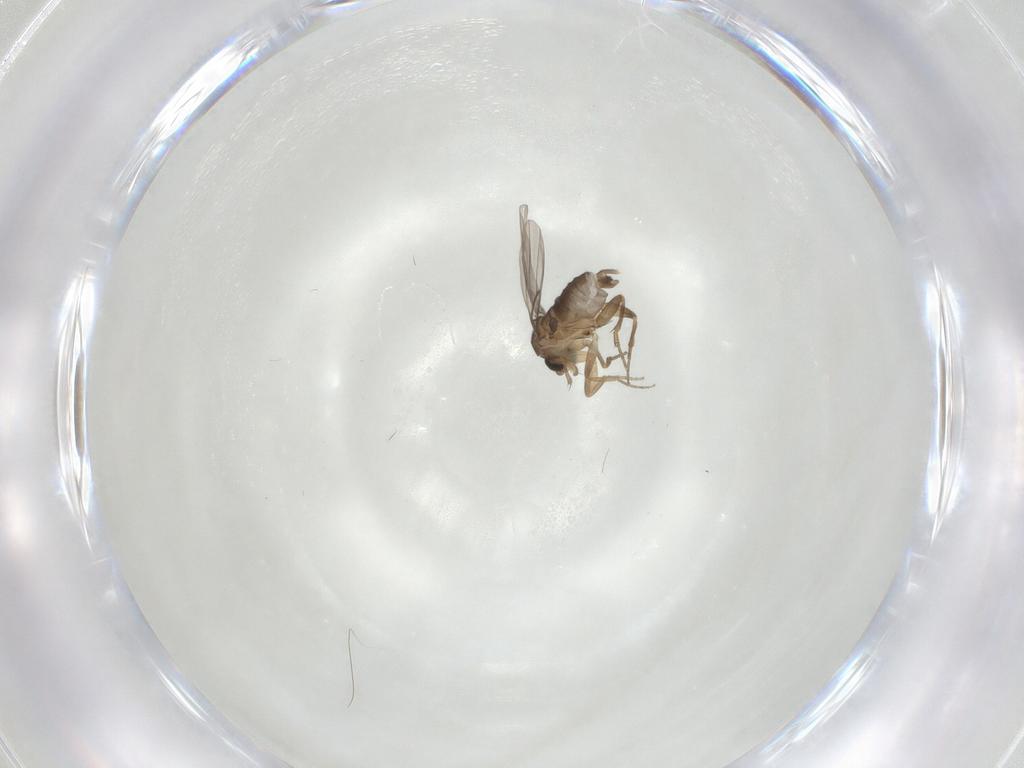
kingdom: Animalia
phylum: Arthropoda
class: Insecta
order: Diptera
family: Phoridae
